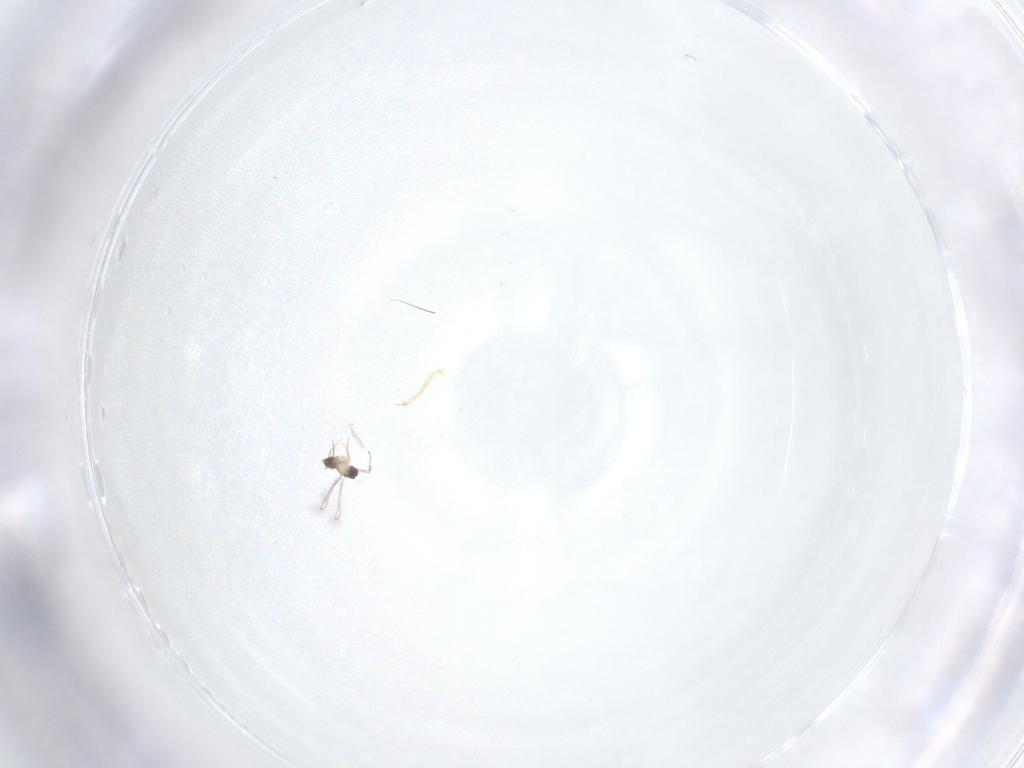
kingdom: Animalia
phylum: Arthropoda
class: Insecta
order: Hymenoptera
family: Mymaridae
